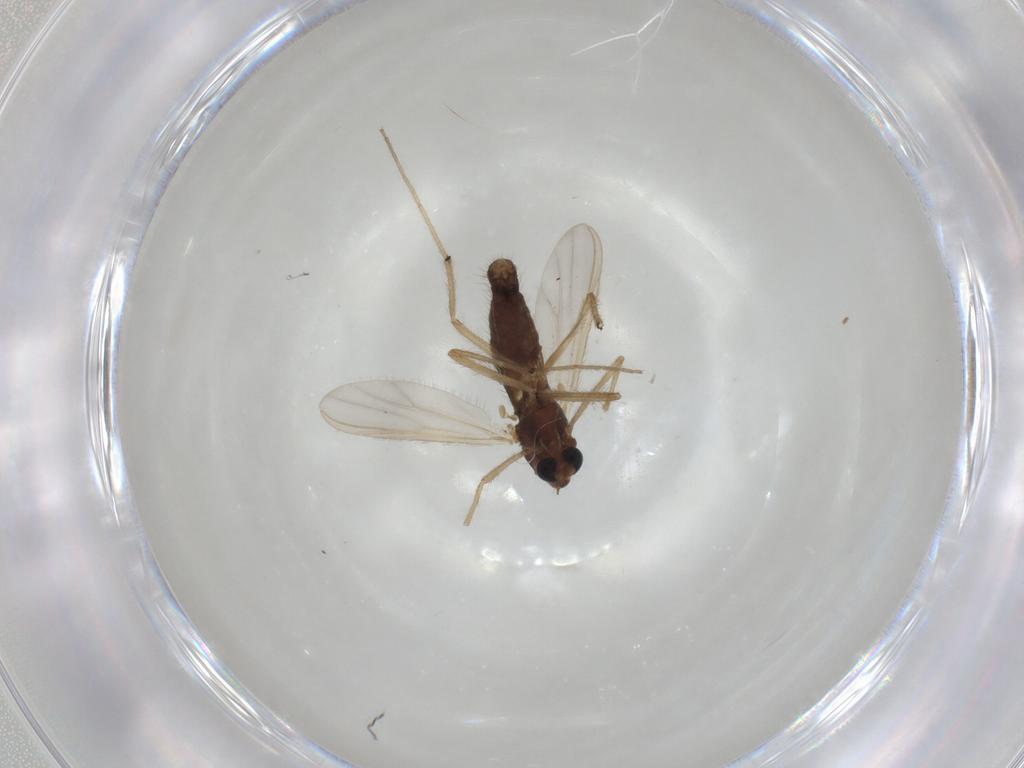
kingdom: Animalia
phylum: Arthropoda
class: Insecta
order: Diptera
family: Chironomidae
